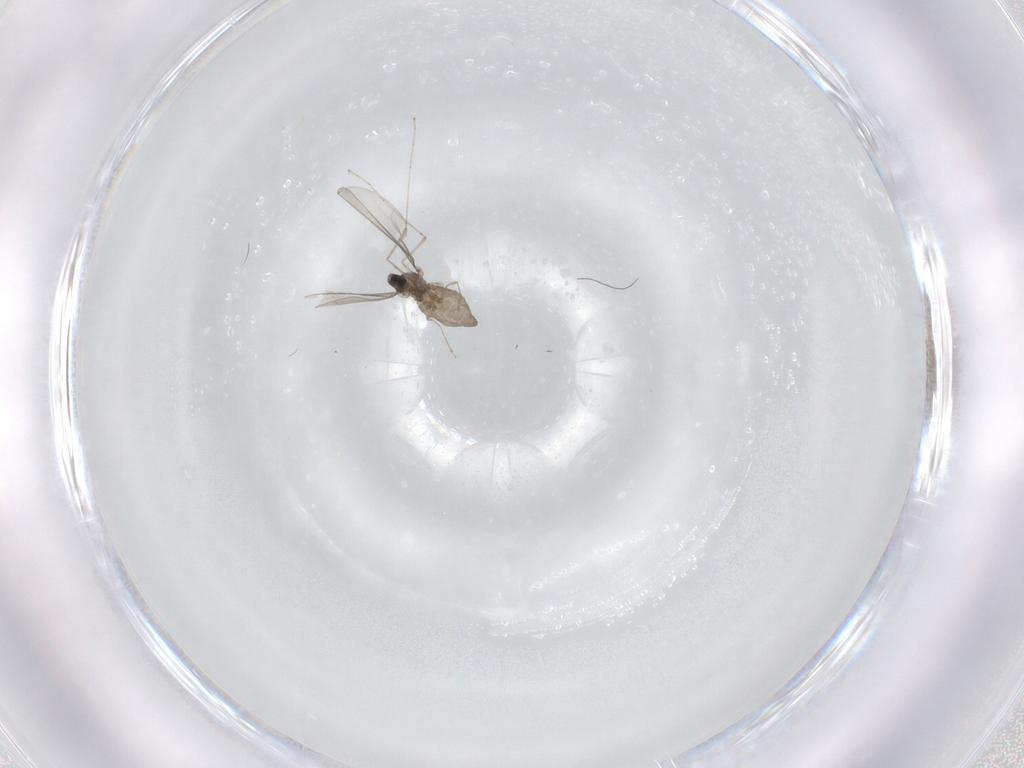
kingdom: Animalia
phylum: Arthropoda
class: Insecta
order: Diptera
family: Cecidomyiidae
